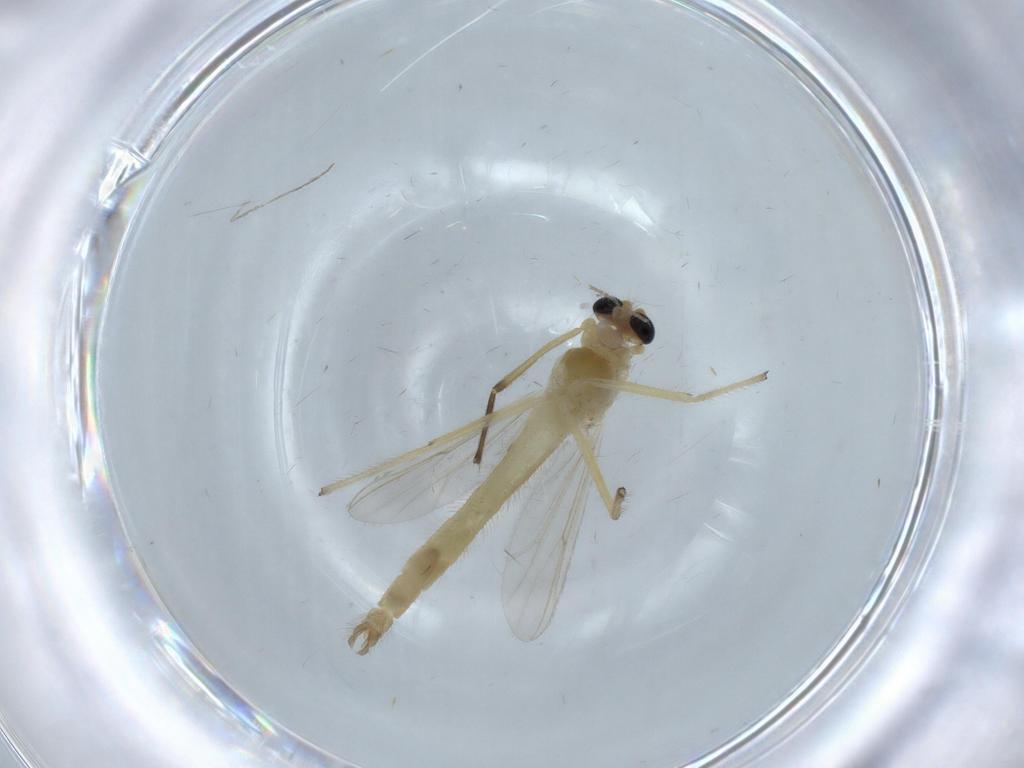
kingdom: Animalia
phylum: Arthropoda
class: Insecta
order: Diptera
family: Chironomidae
